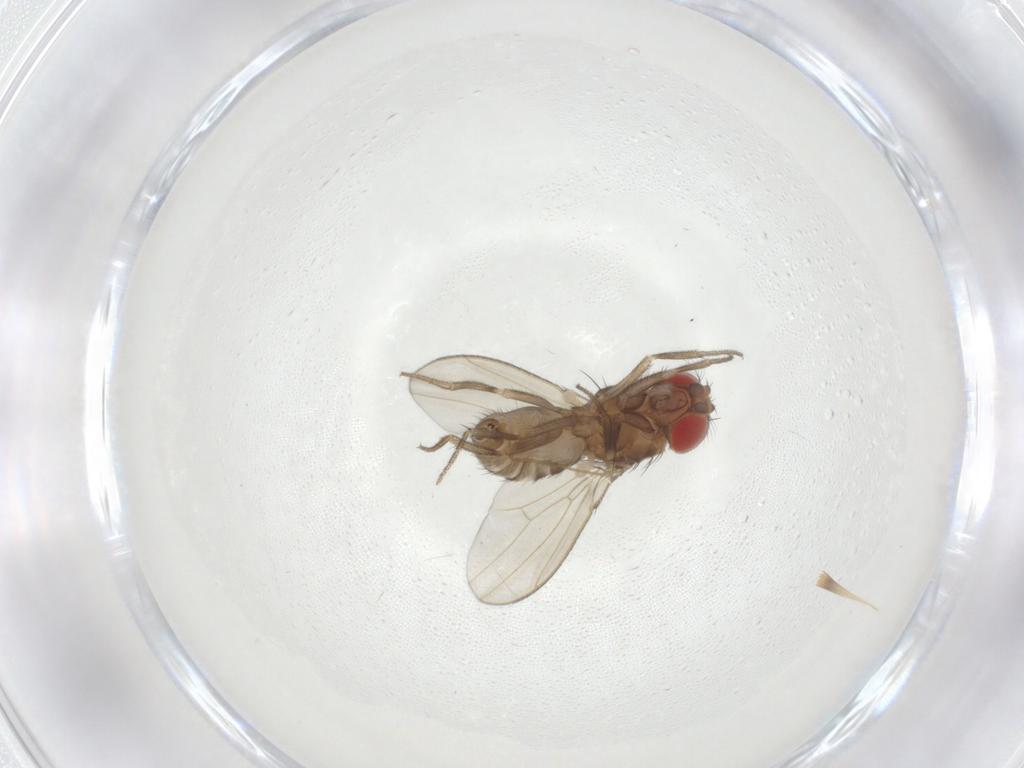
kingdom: Animalia
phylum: Arthropoda
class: Insecta
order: Diptera
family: Drosophilidae
